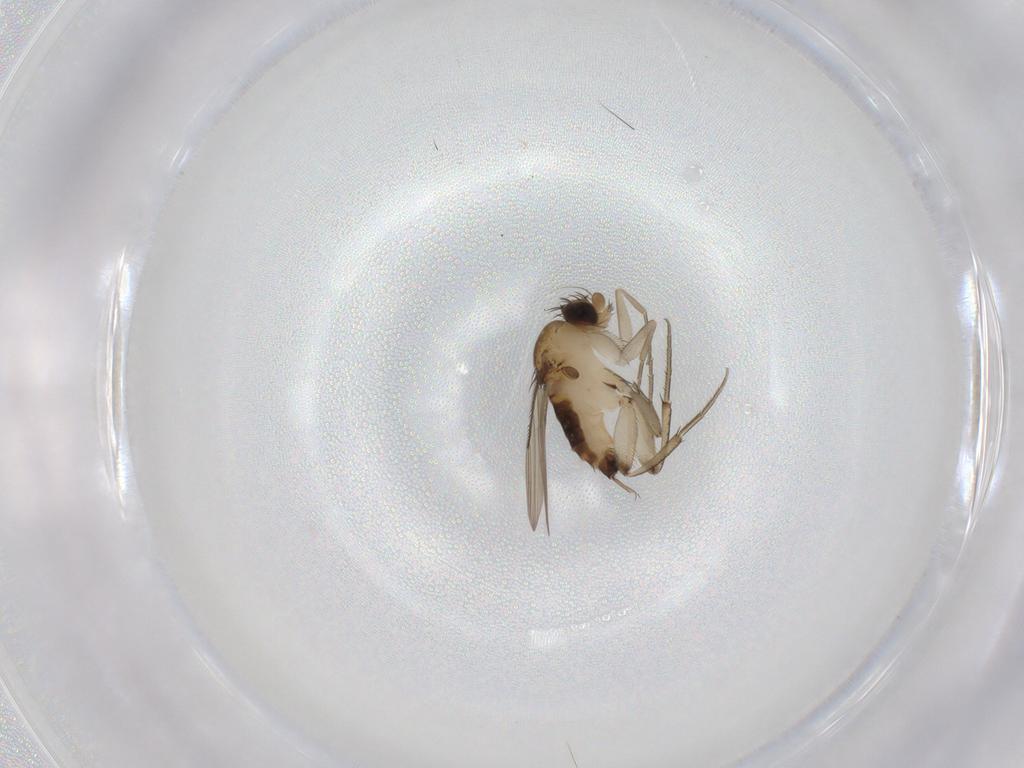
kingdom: Animalia
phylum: Arthropoda
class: Insecta
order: Diptera
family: Phoridae
